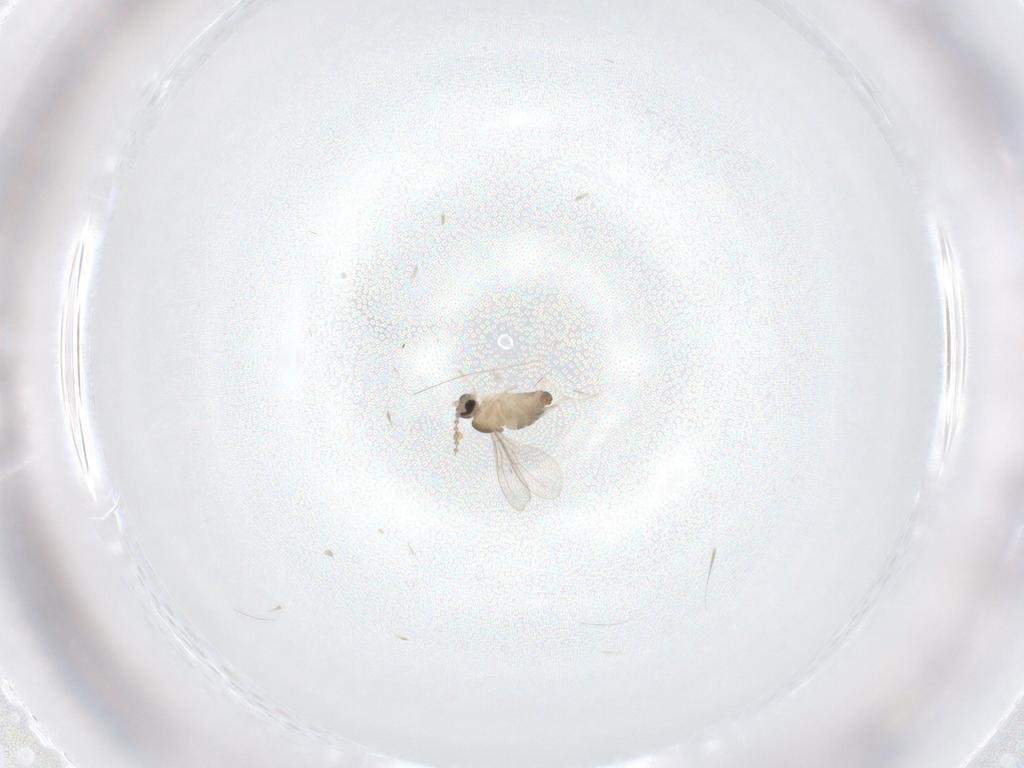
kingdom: Animalia
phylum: Arthropoda
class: Insecta
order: Diptera
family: Cecidomyiidae
